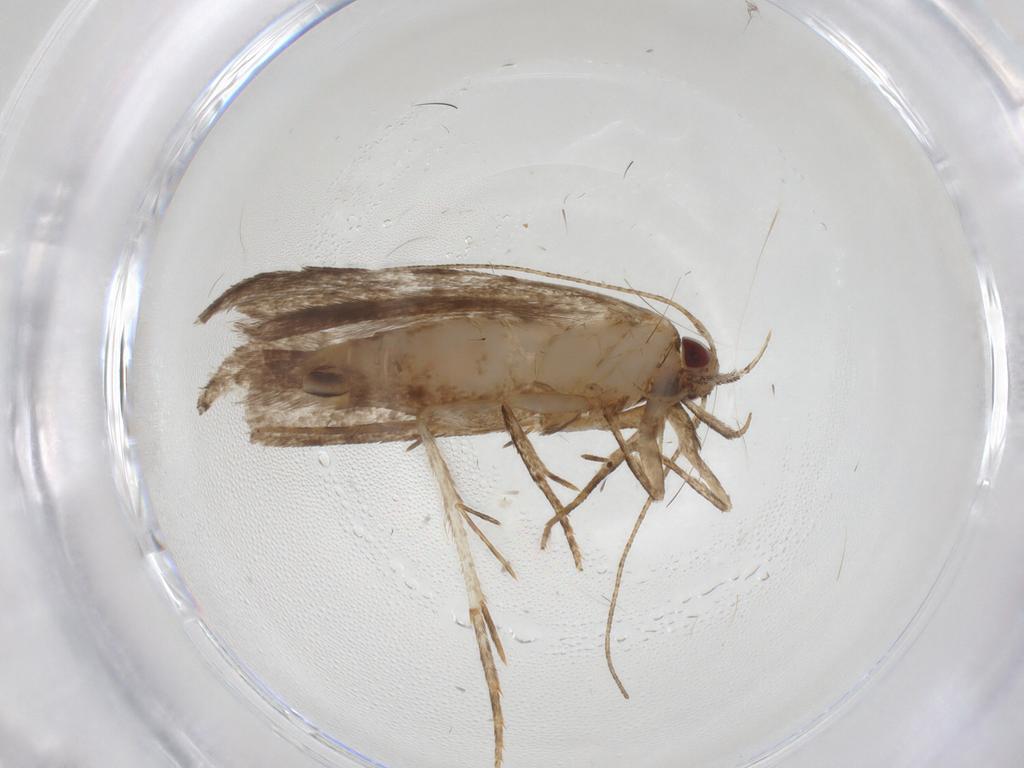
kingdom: Animalia
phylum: Arthropoda
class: Insecta
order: Lepidoptera
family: Gelechiidae
